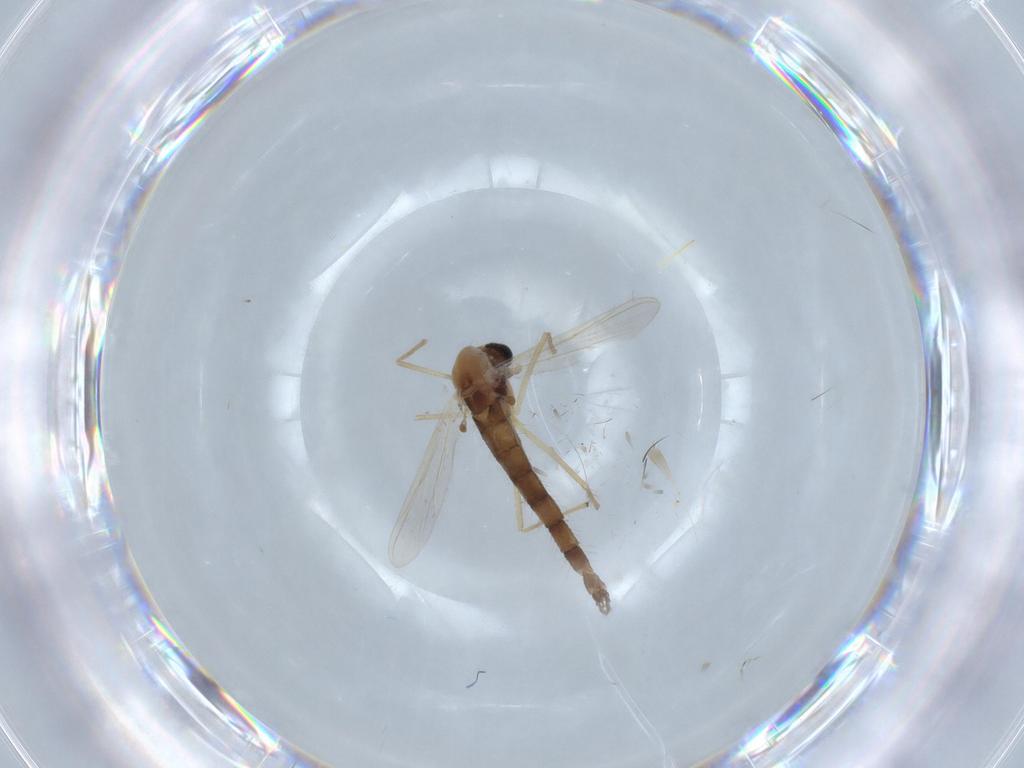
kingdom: Animalia
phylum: Arthropoda
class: Insecta
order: Diptera
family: Chironomidae
